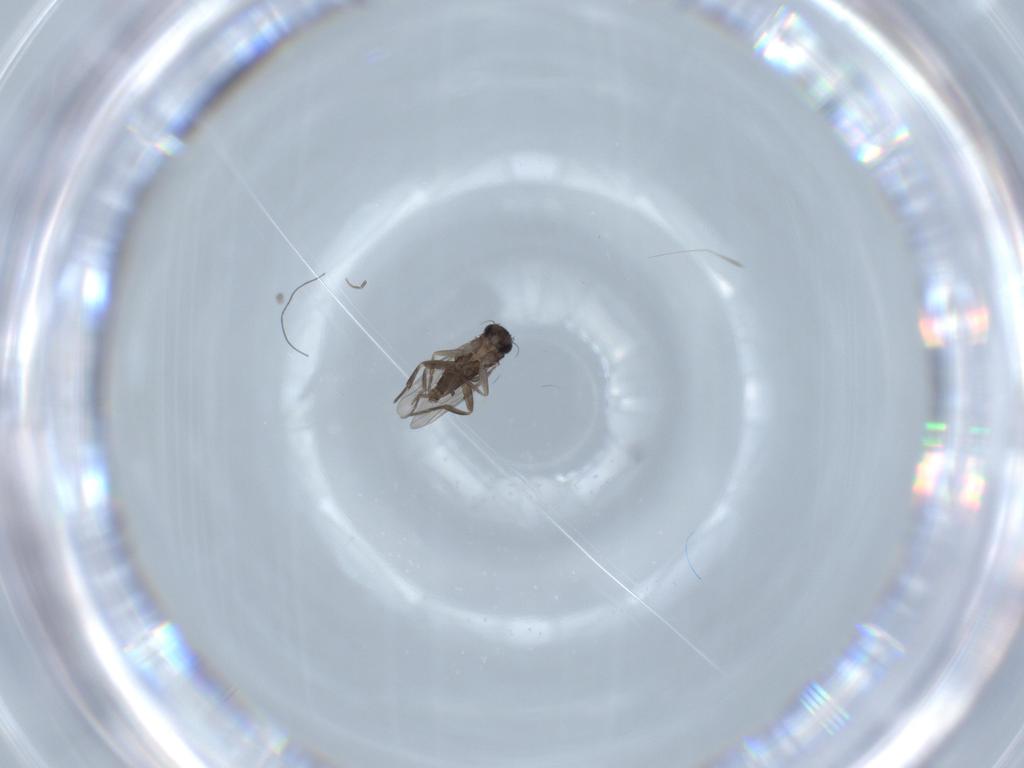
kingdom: Animalia
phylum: Arthropoda
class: Insecta
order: Diptera
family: Phoridae
